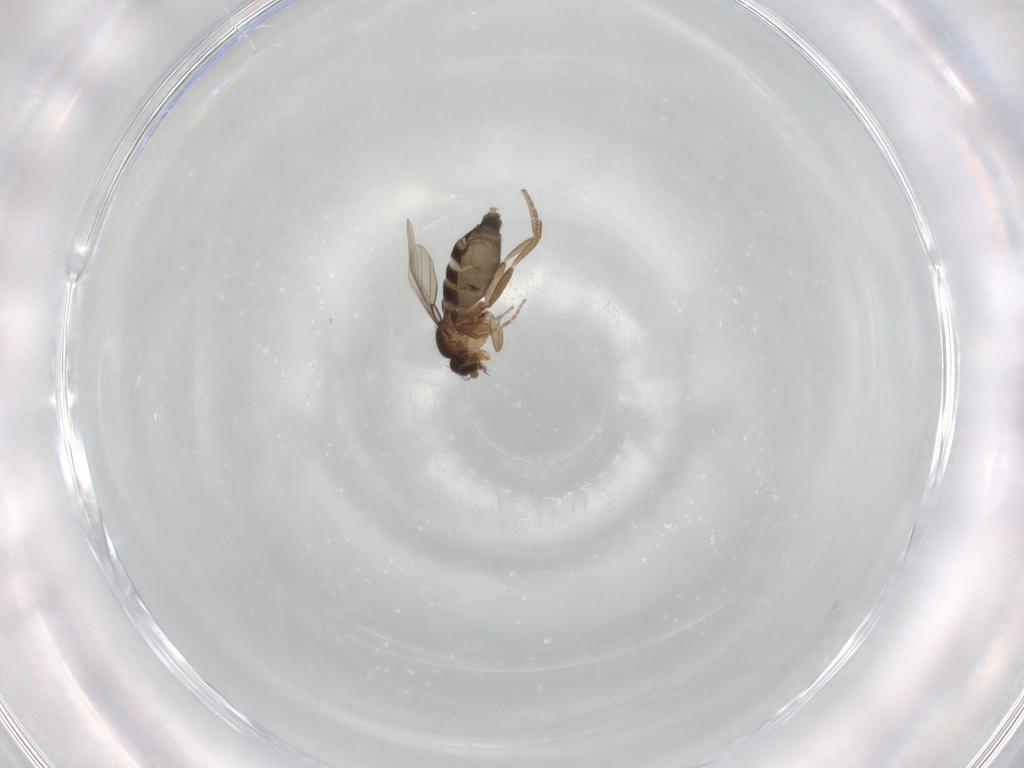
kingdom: Animalia
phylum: Arthropoda
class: Insecta
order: Diptera
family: Phoridae
